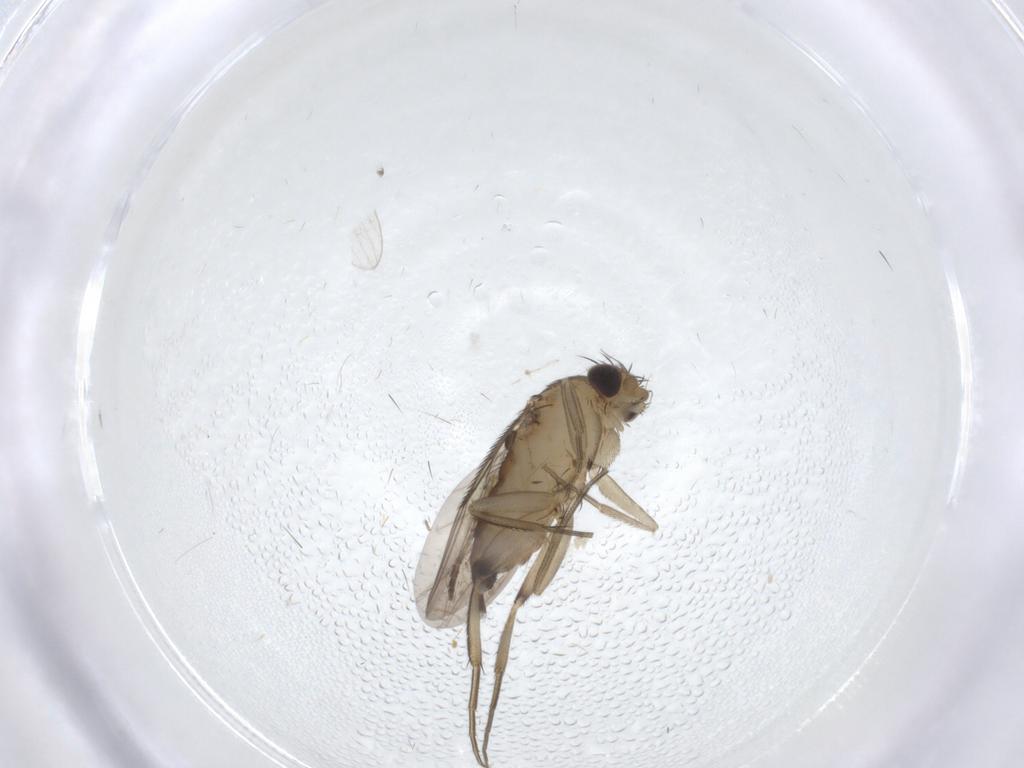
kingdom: Animalia
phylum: Arthropoda
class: Insecta
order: Diptera
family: Phoridae
